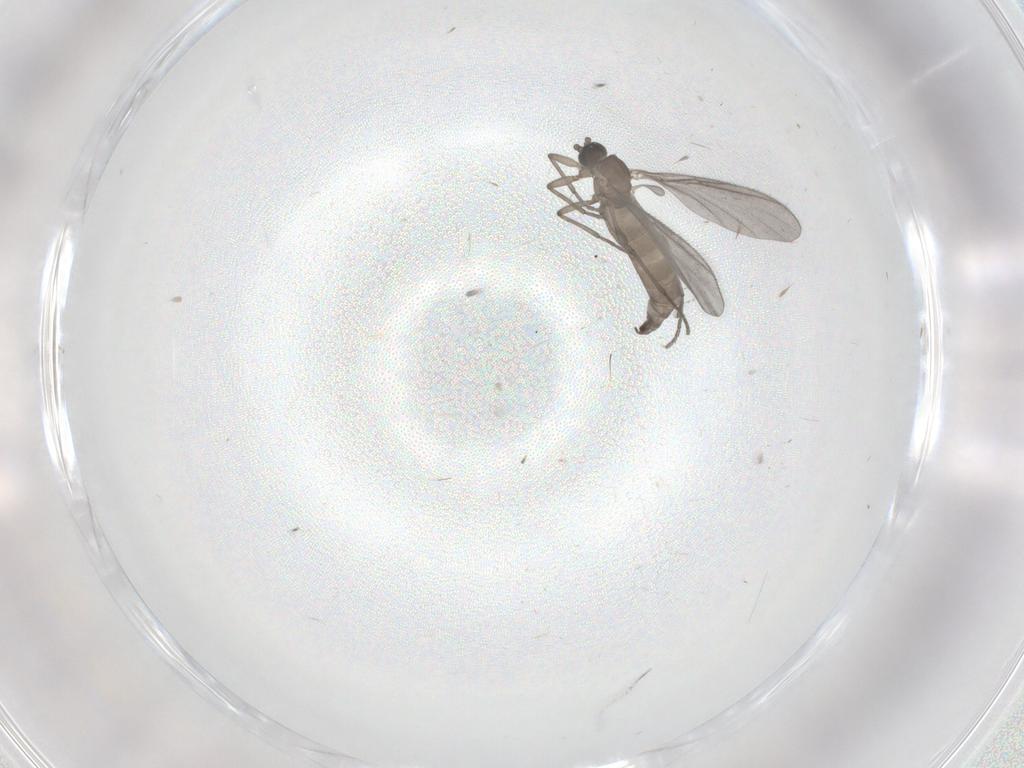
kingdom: Animalia
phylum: Arthropoda
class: Insecta
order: Diptera
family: Sciaridae
